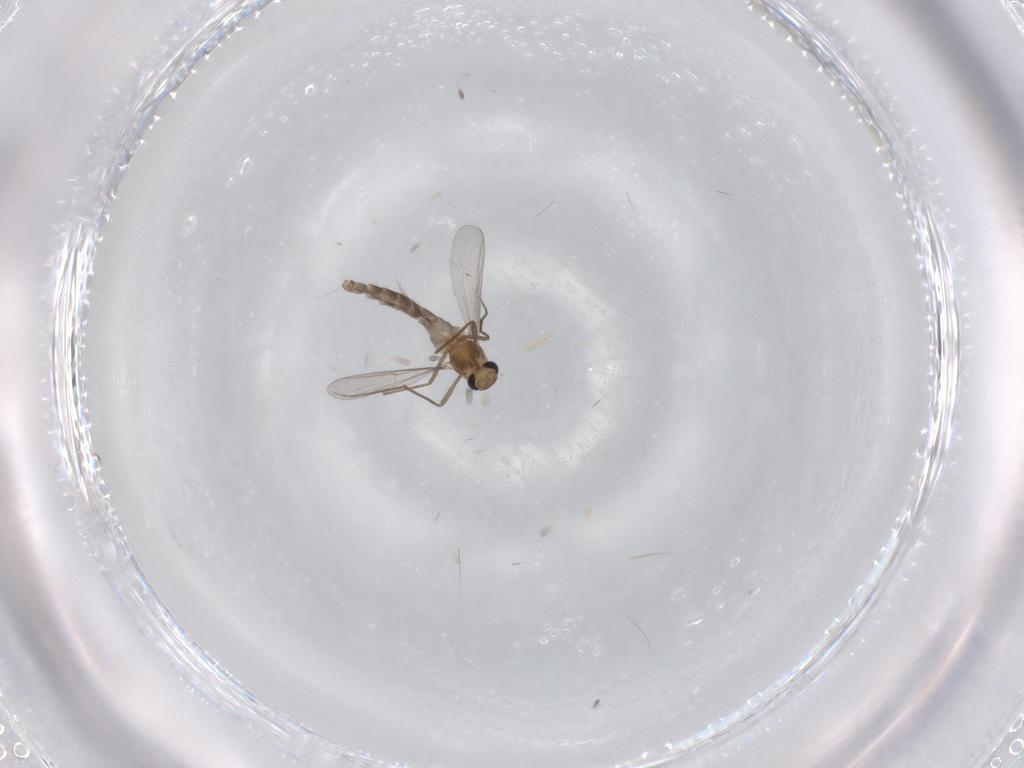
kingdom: Animalia
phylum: Arthropoda
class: Insecta
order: Diptera
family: Chironomidae
